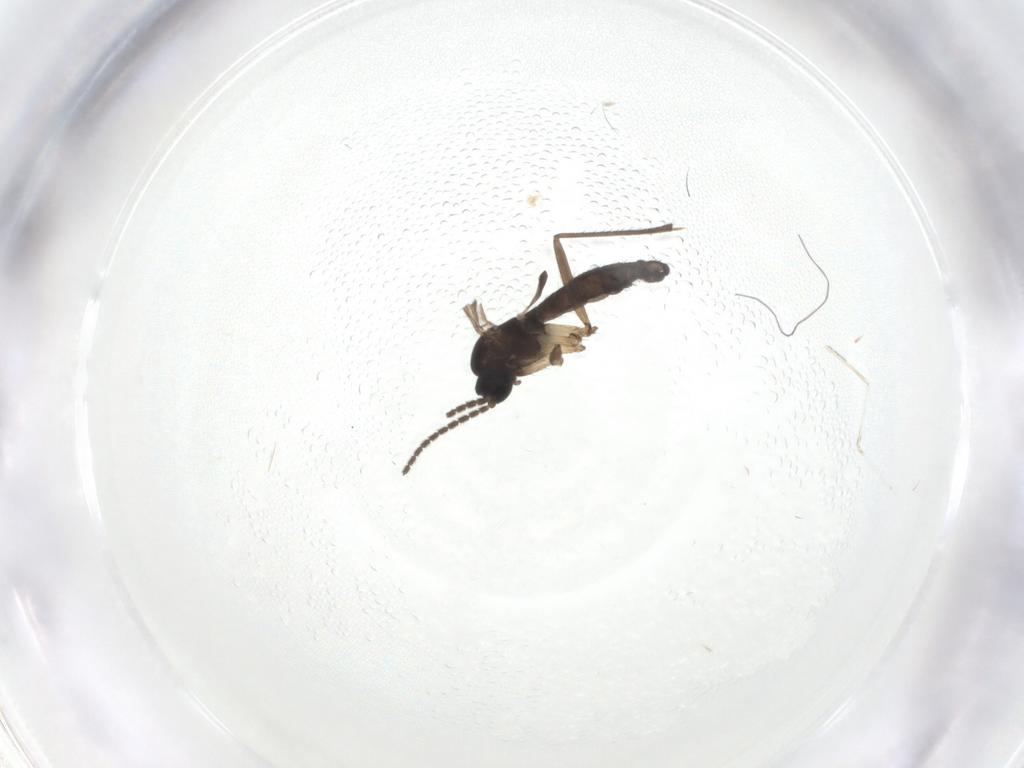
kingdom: Animalia
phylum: Arthropoda
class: Insecta
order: Diptera
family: Sciaridae
